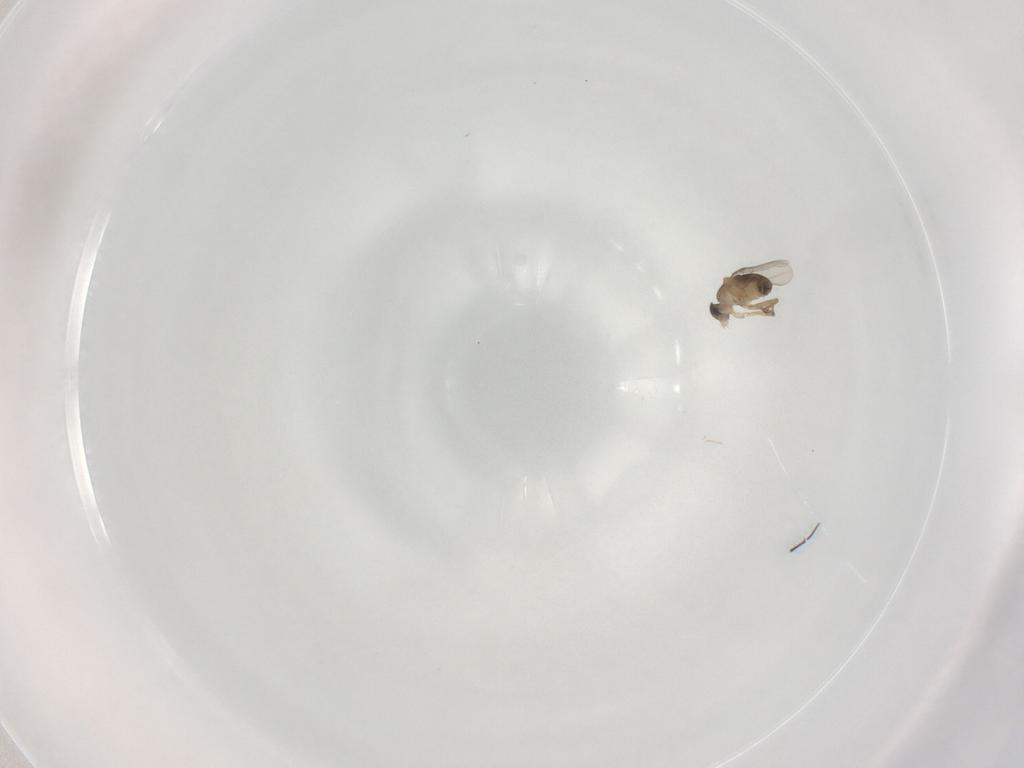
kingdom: Animalia
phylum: Arthropoda
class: Insecta
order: Diptera
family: Phoridae
